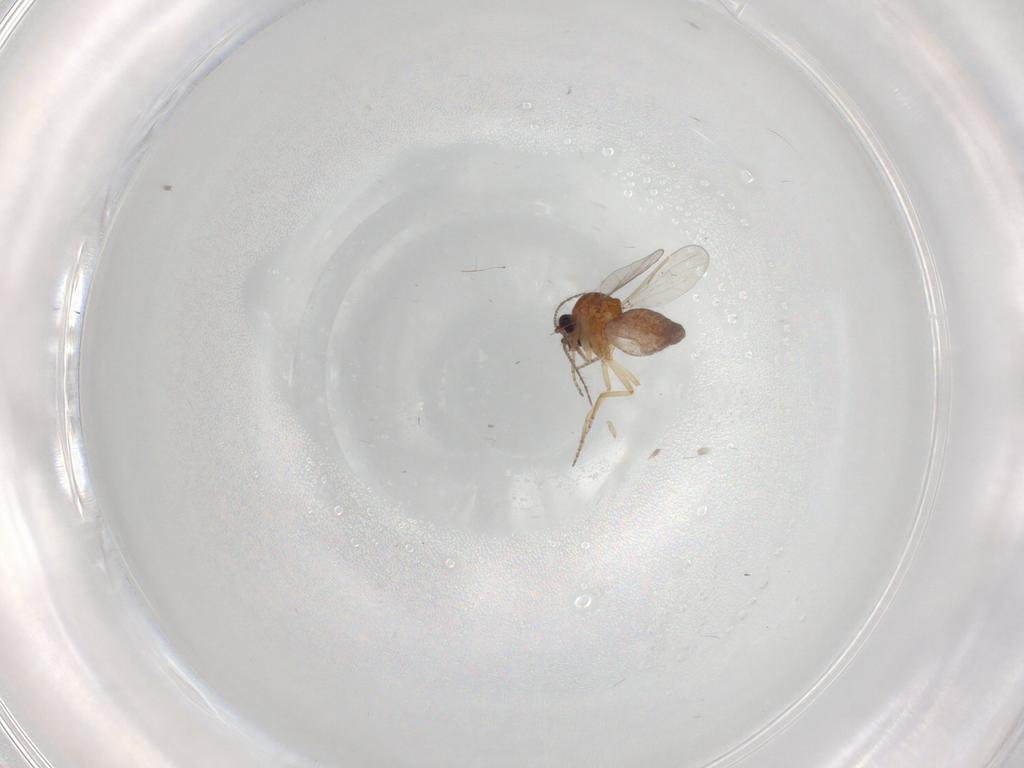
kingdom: Animalia
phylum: Arthropoda
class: Insecta
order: Diptera
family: Ceratopogonidae
